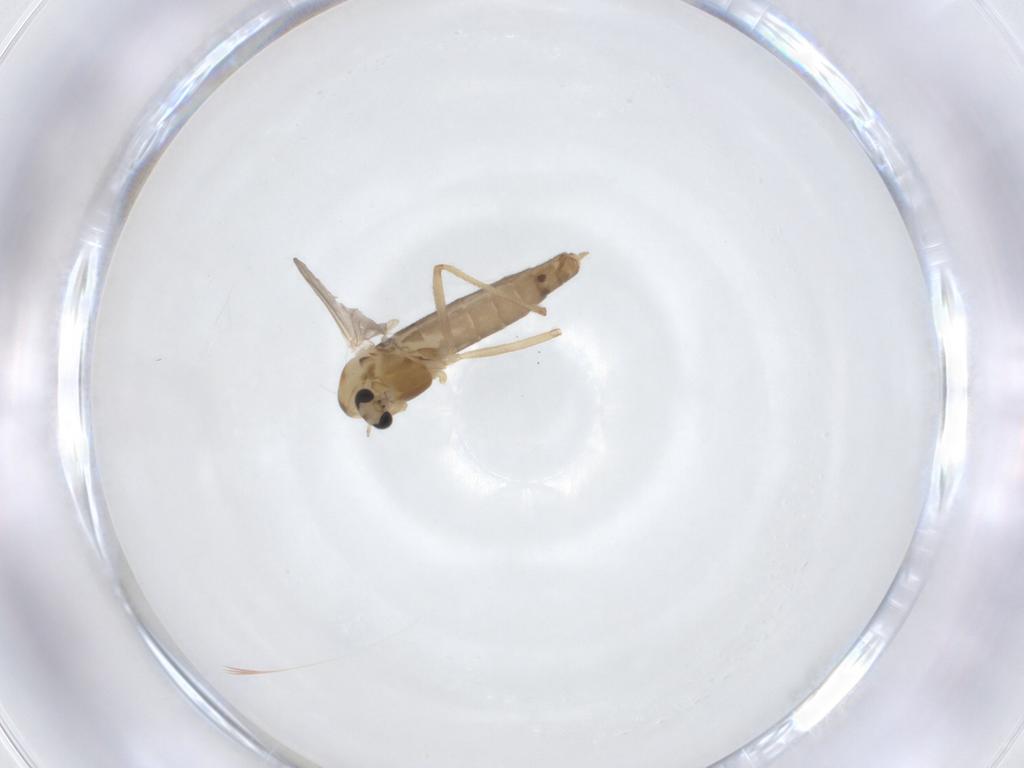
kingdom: Animalia
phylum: Arthropoda
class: Insecta
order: Diptera
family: Chironomidae
